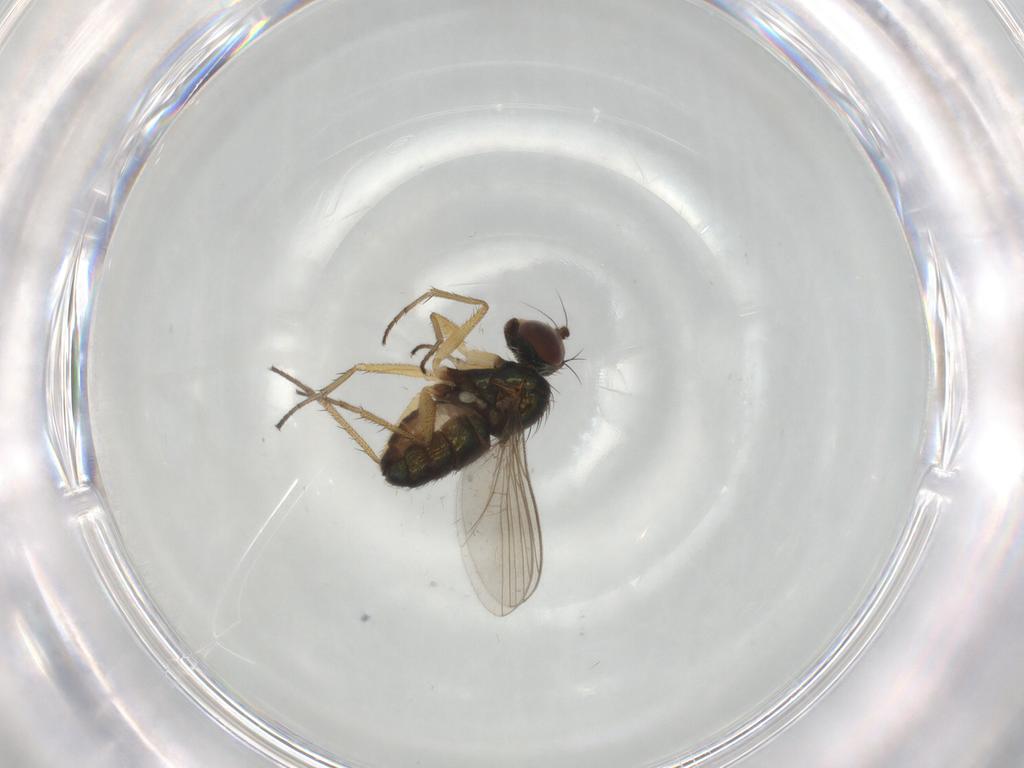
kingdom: Animalia
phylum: Arthropoda
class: Insecta
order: Diptera
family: Dolichopodidae
